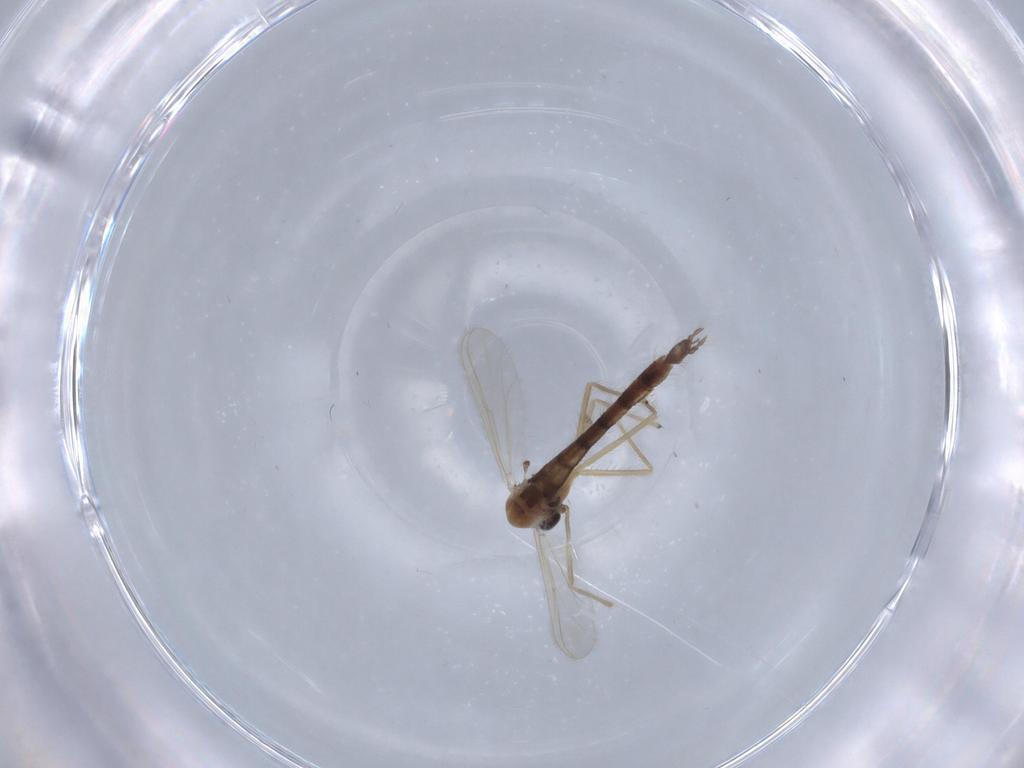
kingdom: Animalia
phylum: Arthropoda
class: Insecta
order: Diptera
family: Chironomidae
